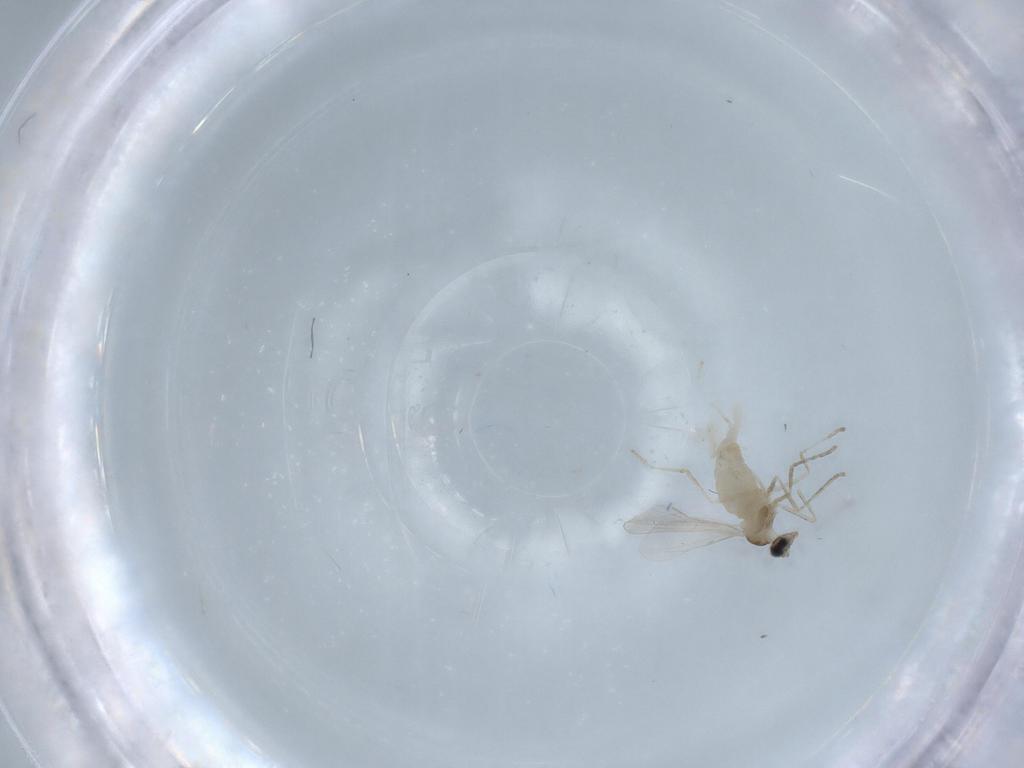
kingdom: Animalia
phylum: Arthropoda
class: Insecta
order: Diptera
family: Chironomidae
